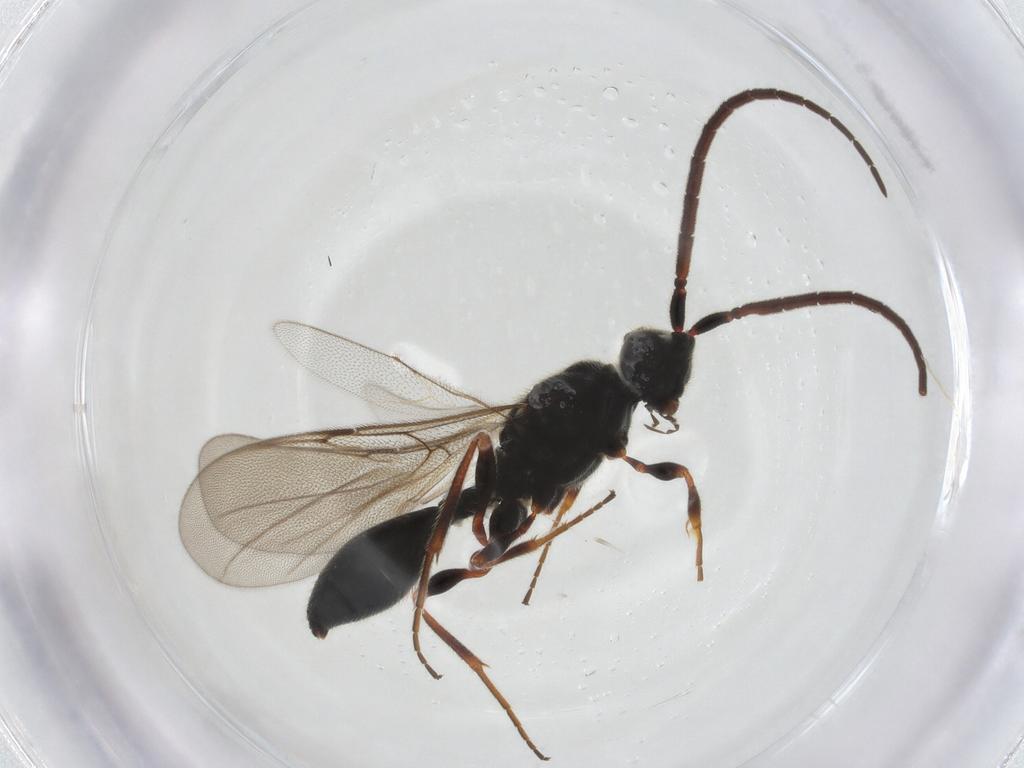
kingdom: Animalia
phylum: Arthropoda
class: Insecta
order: Hymenoptera
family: Diapriidae
